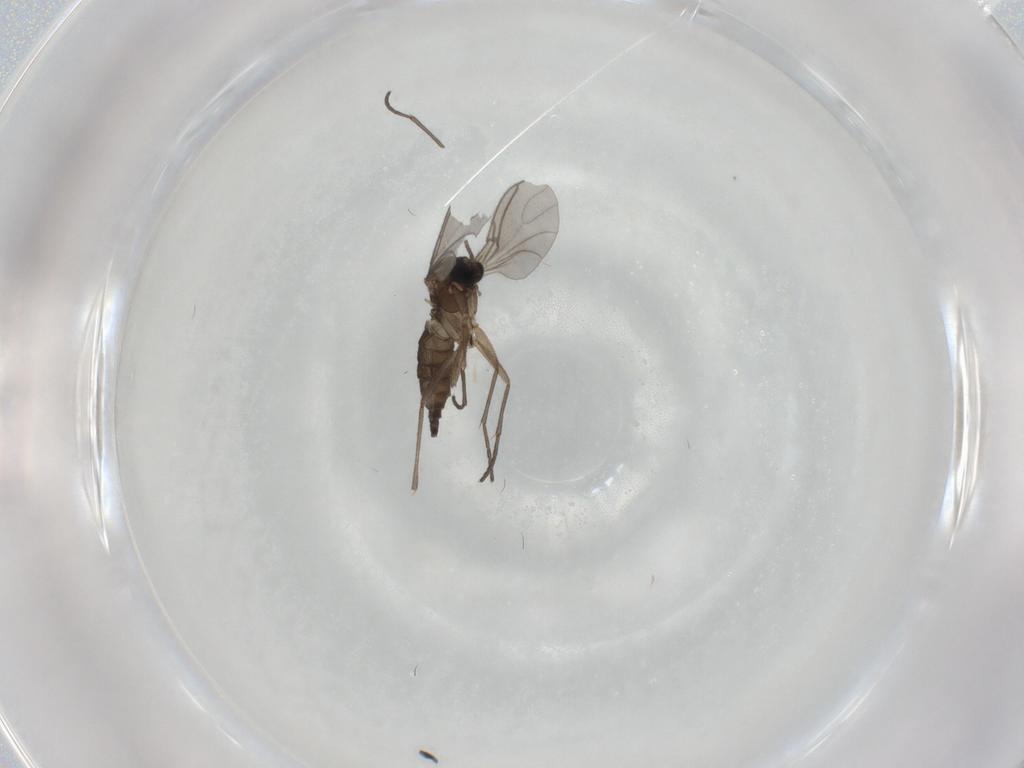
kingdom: Animalia
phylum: Arthropoda
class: Insecta
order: Diptera
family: Sciaridae
